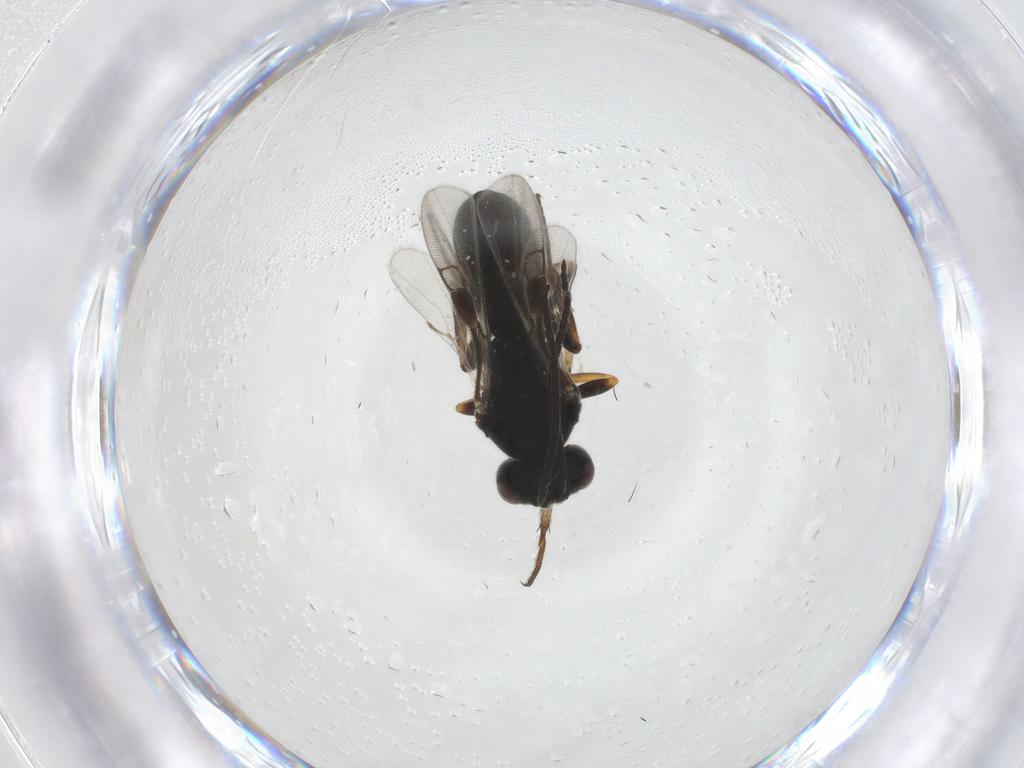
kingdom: Animalia
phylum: Arthropoda
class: Insecta
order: Hymenoptera
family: Braconidae
